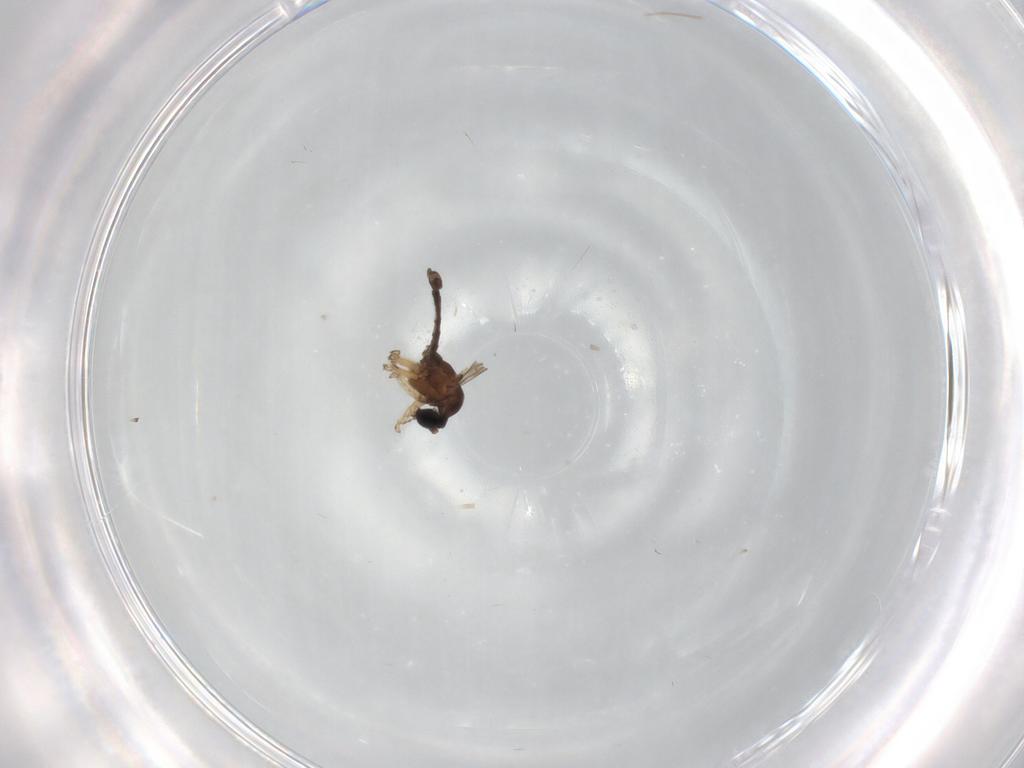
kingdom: Animalia
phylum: Arthropoda
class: Insecta
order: Diptera
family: Sciaridae
